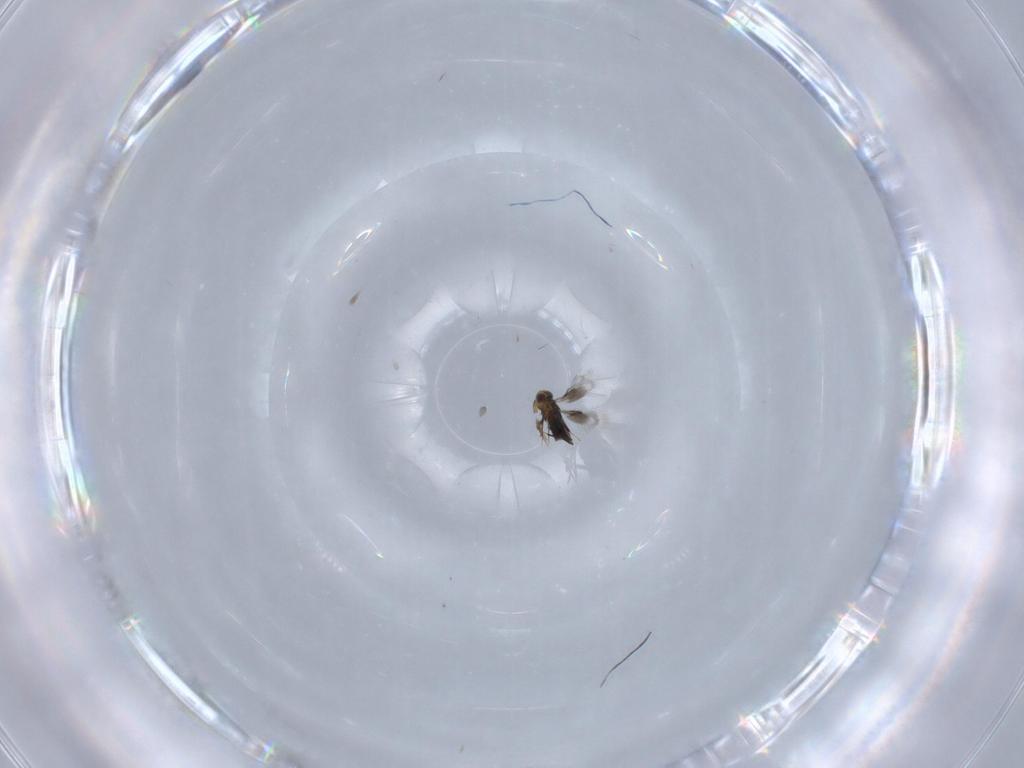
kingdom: Animalia
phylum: Arthropoda
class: Insecta
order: Hymenoptera
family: Signiphoridae
